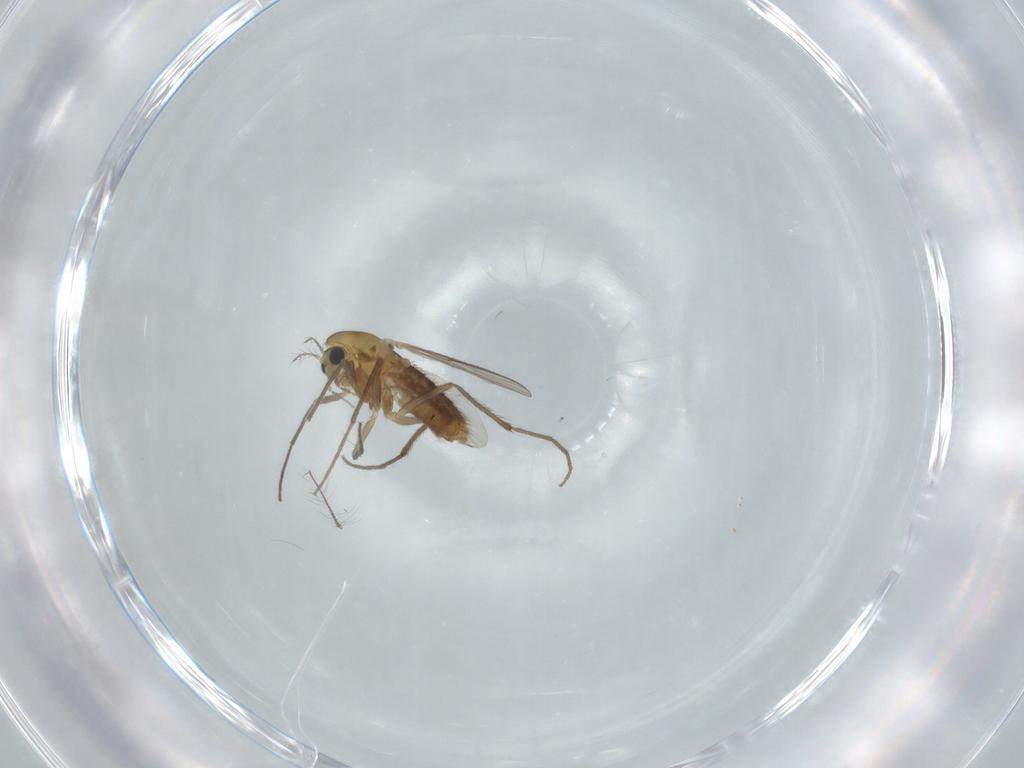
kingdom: Animalia
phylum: Arthropoda
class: Insecta
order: Diptera
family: Chironomidae
